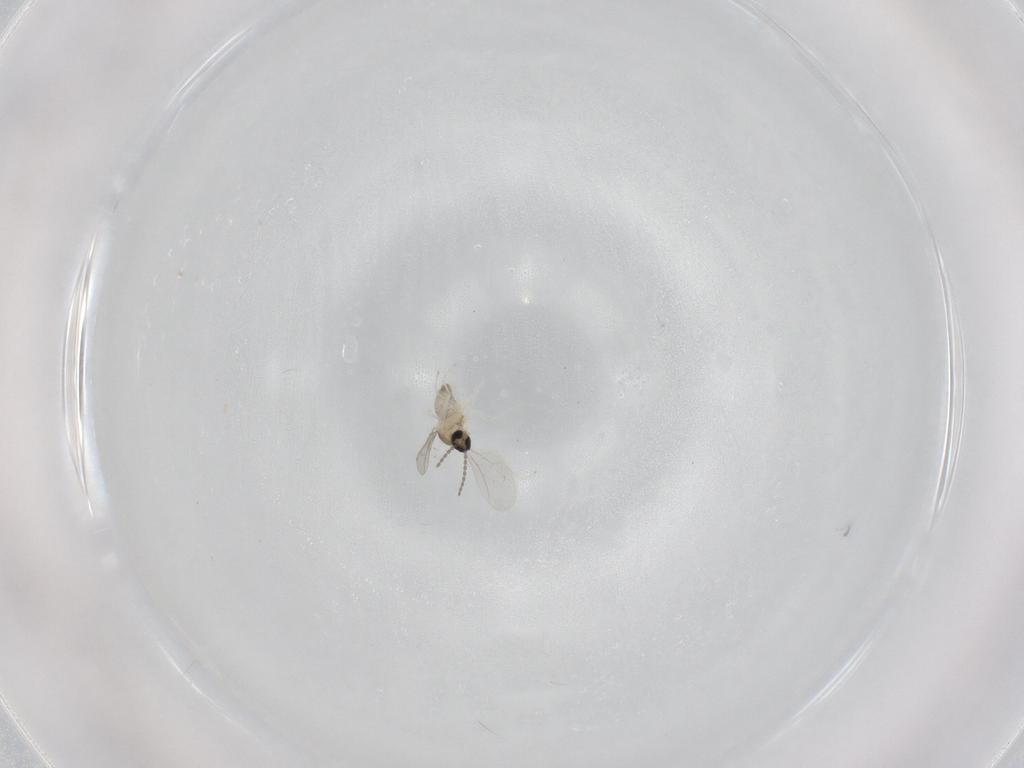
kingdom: Animalia
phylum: Arthropoda
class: Insecta
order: Diptera
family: Cecidomyiidae
